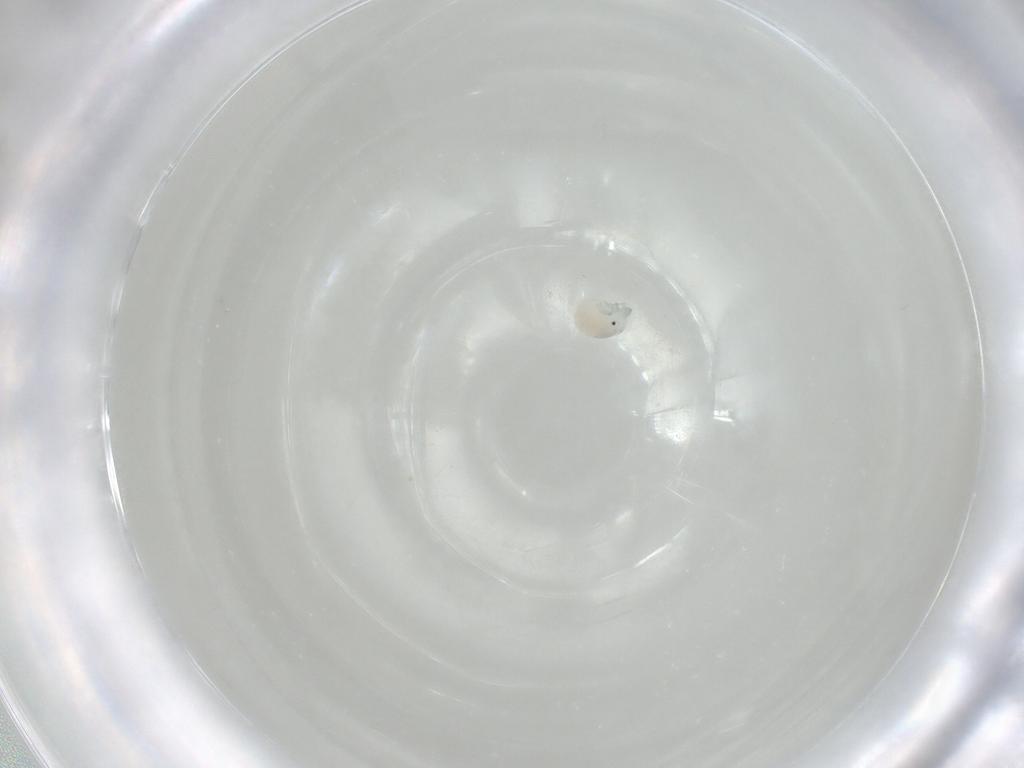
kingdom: Animalia
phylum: Arthropoda
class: Arachnida
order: Trombidiformes
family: Arrenuridae
